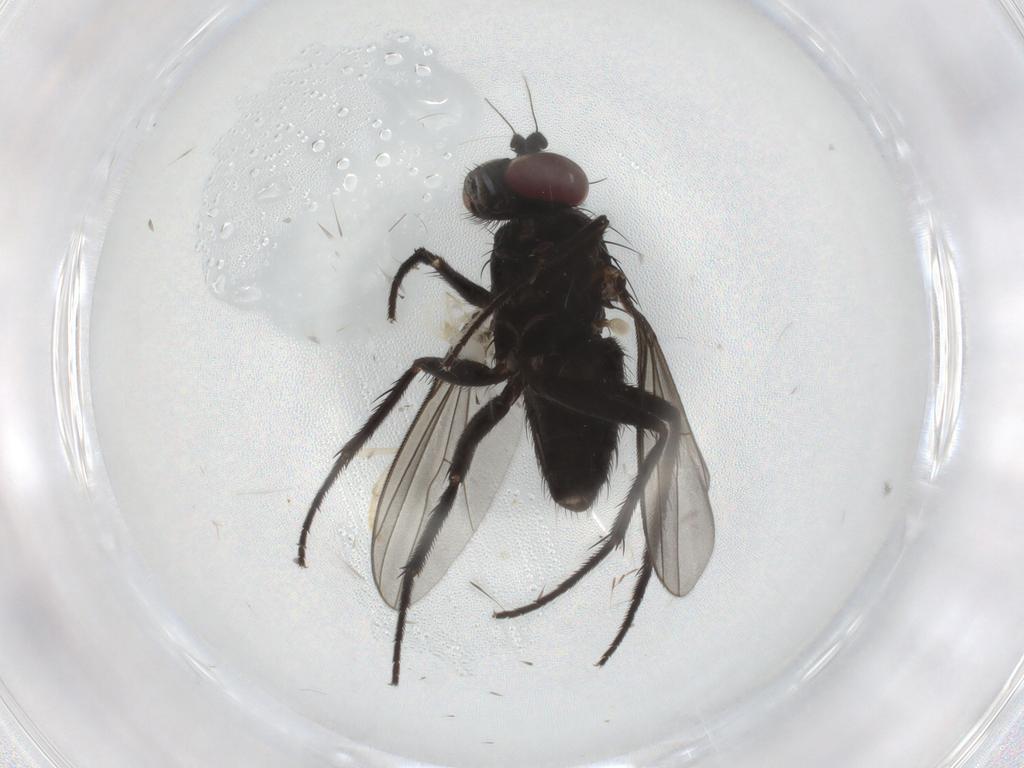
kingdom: Animalia
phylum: Arthropoda
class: Insecta
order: Diptera
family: Dolichopodidae
